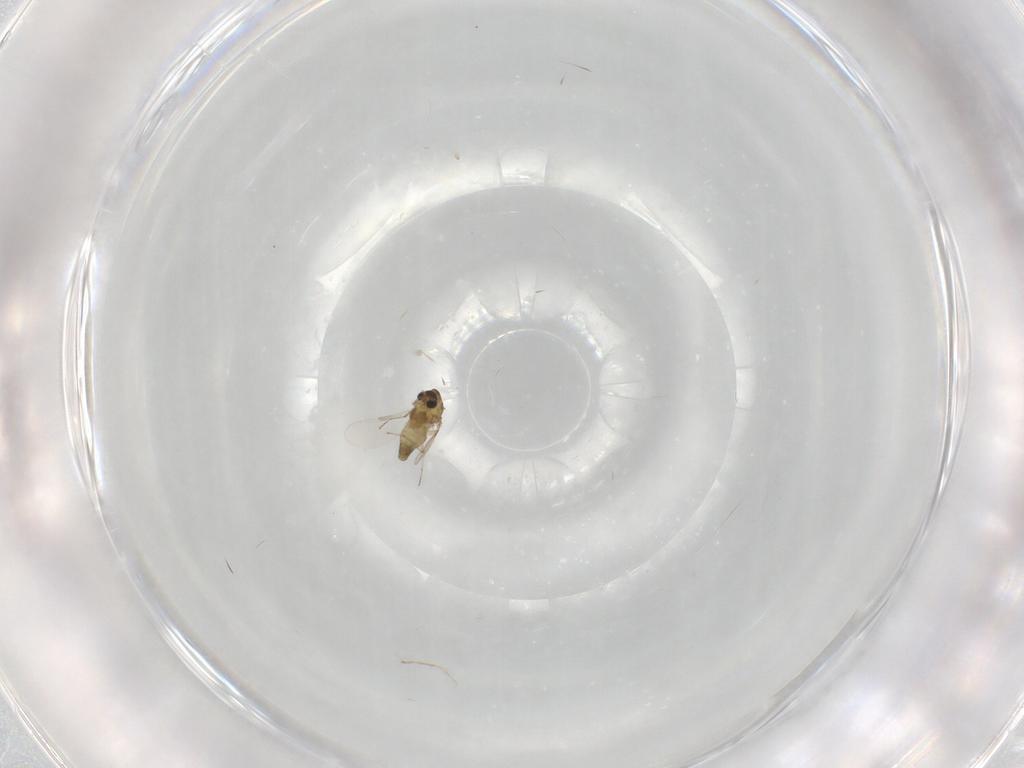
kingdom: Animalia
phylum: Arthropoda
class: Insecta
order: Diptera
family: Chironomidae
